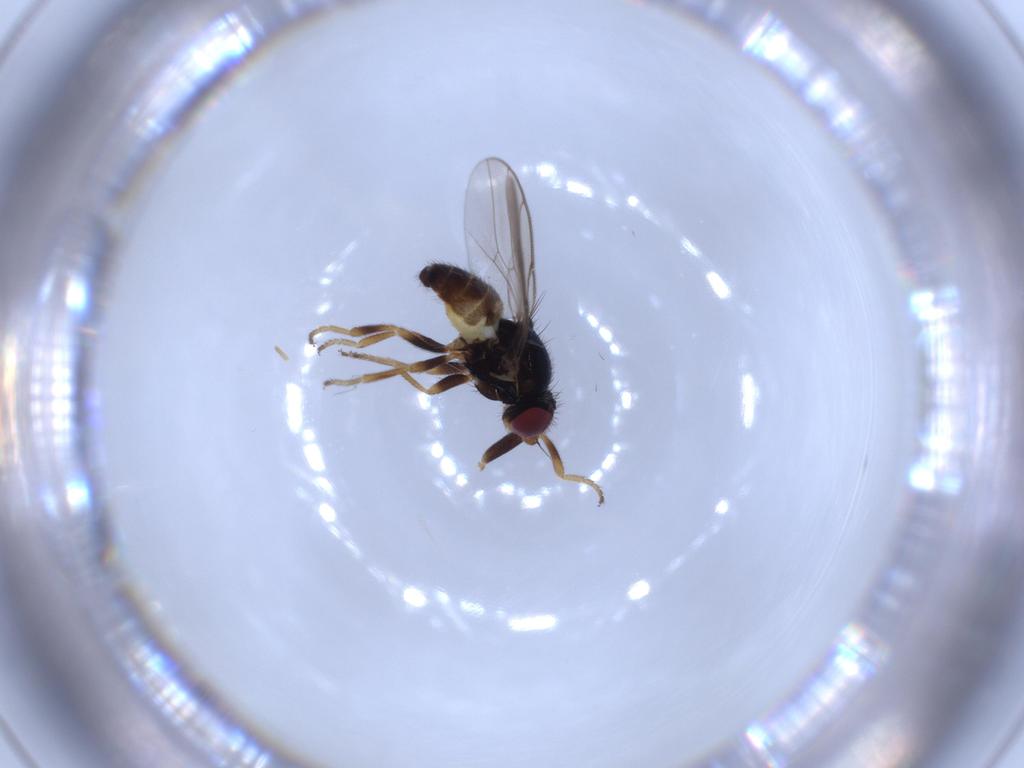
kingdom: Animalia
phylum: Arthropoda
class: Insecta
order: Diptera
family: Chloropidae
